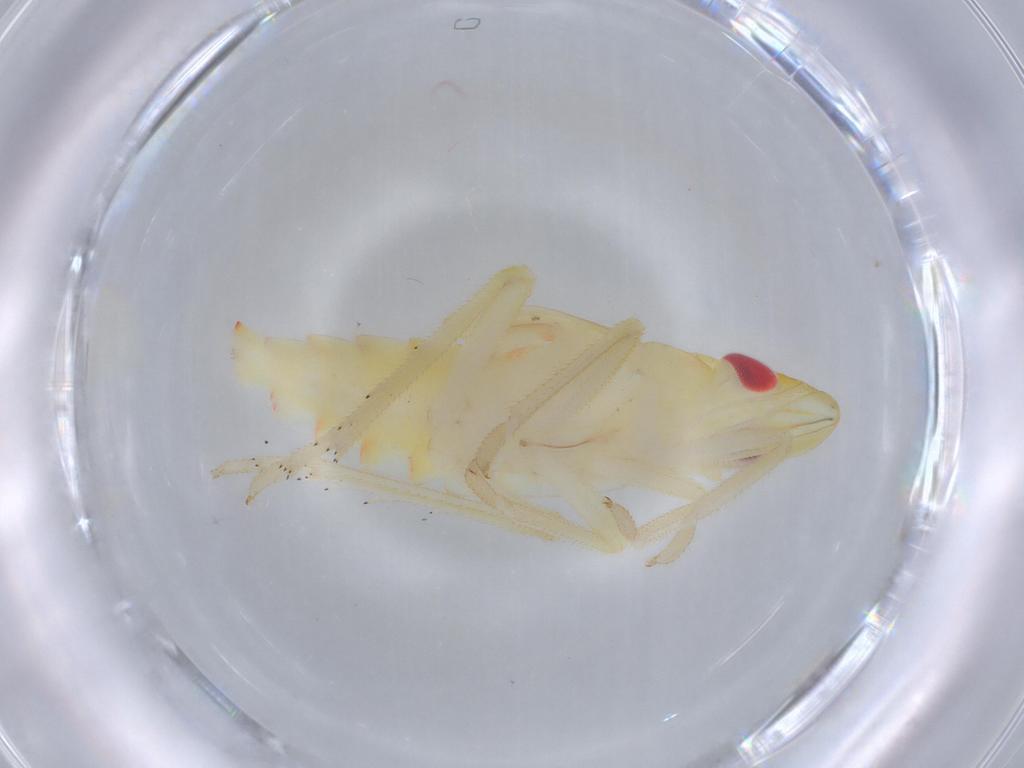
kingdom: Animalia
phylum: Arthropoda
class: Insecta
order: Hemiptera
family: Tropiduchidae
